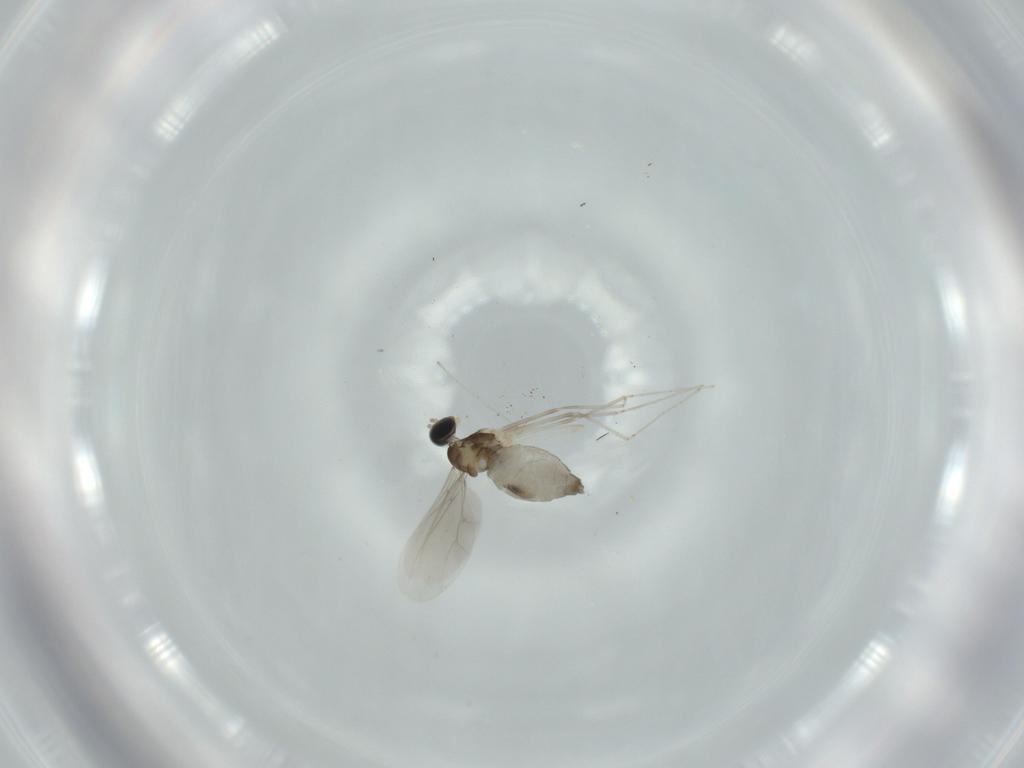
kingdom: Animalia
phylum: Arthropoda
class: Insecta
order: Diptera
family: Cecidomyiidae
